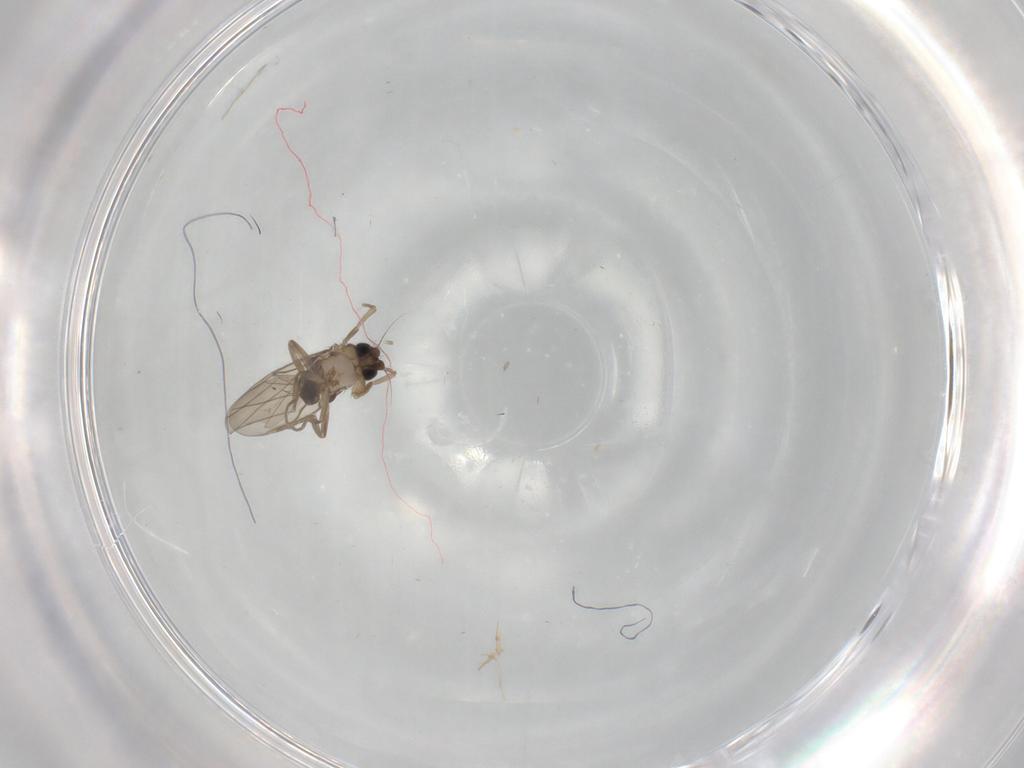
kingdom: Animalia
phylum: Arthropoda
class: Insecta
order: Diptera
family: Phoridae
